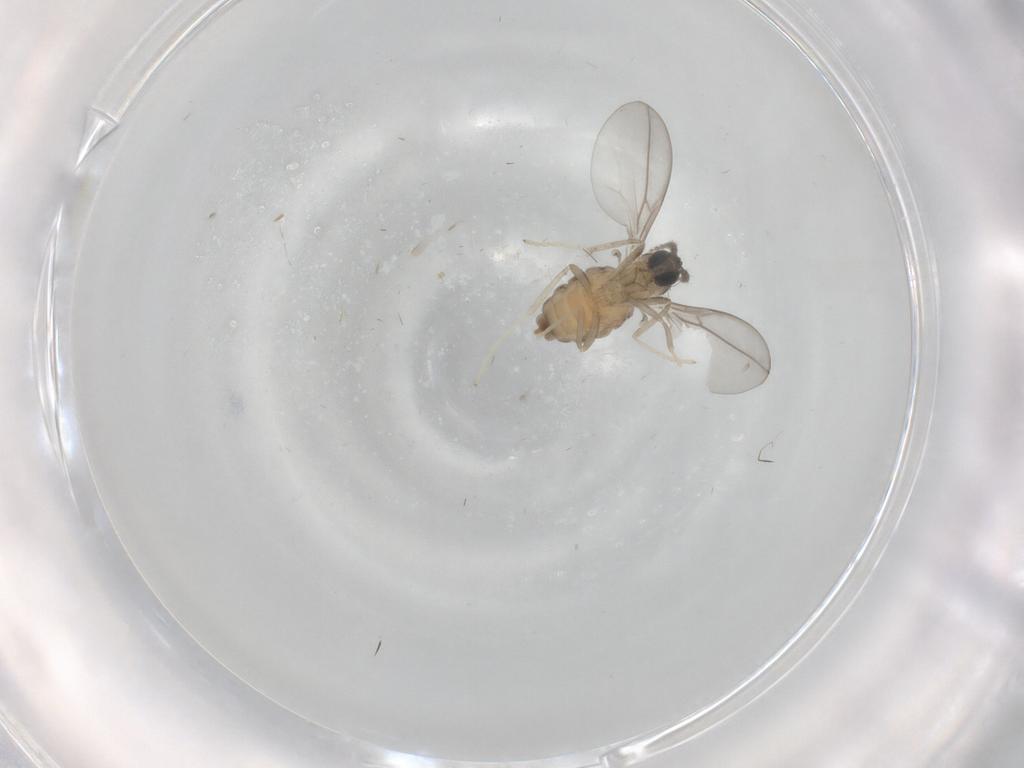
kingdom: Animalia
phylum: Arthropoda
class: Insecta
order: Diptera
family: Cecidomyiidae
